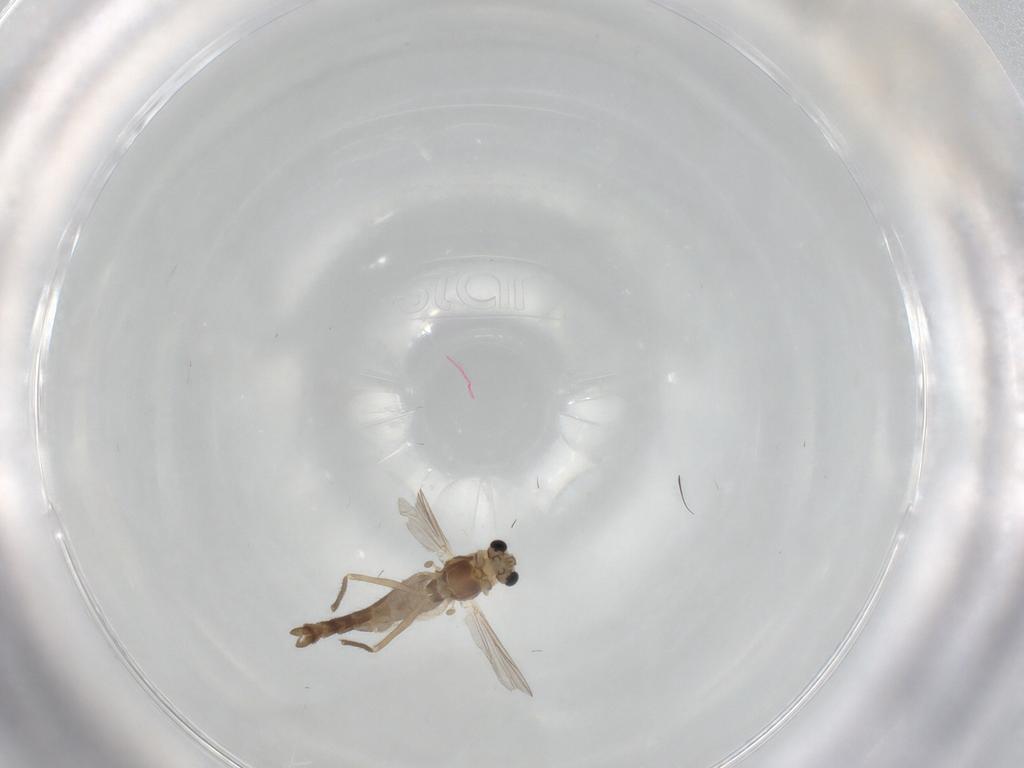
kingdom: Animalia
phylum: Arthropoda
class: Insecta
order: Diptera
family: Chironomidae
